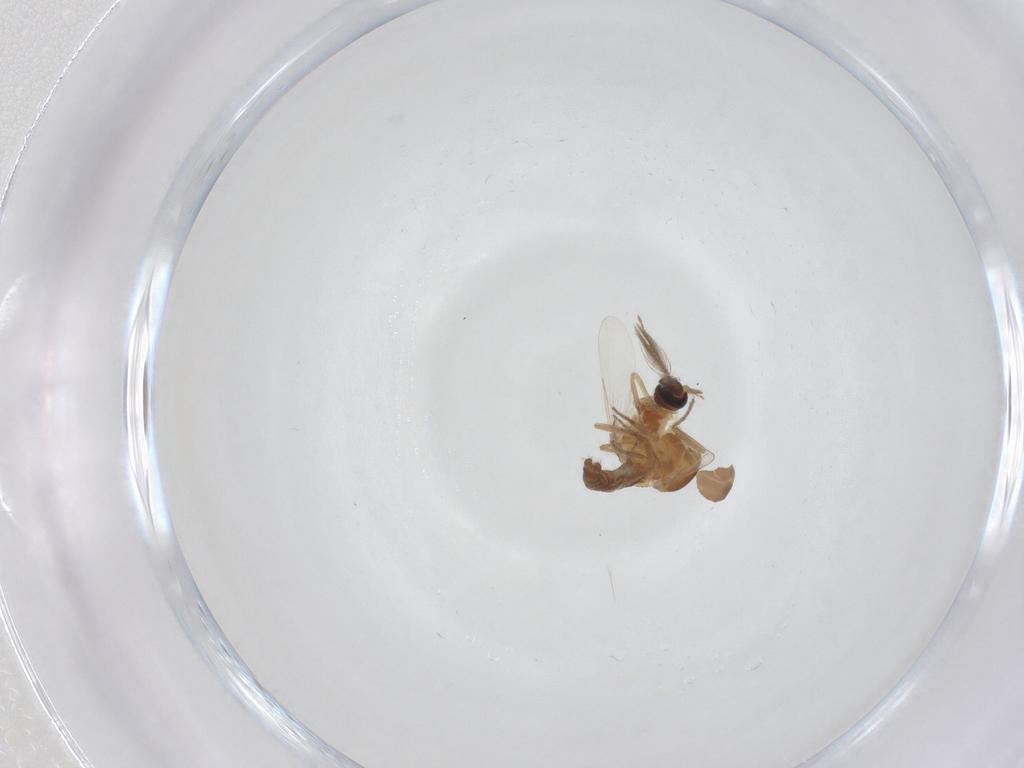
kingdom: Animalia
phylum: Arthropoda
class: Insecta
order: Diptera
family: Ceratopogonidae
